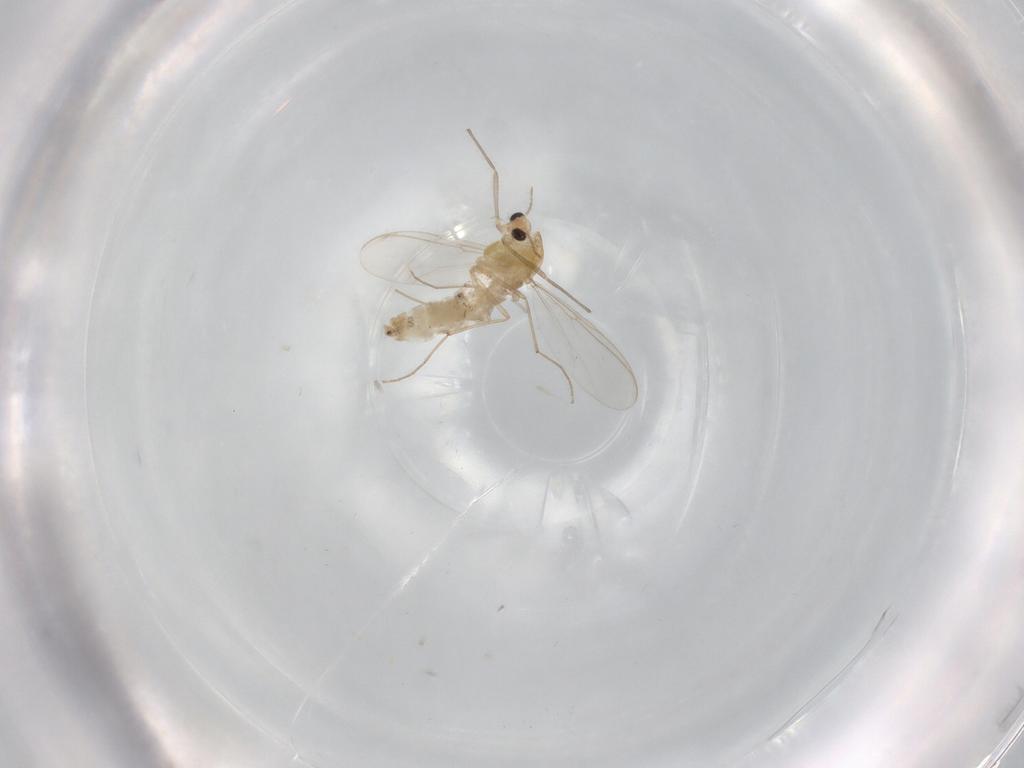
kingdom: Animalia
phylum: Arthropoda
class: Insecta
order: Diptera
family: Chironomidae
